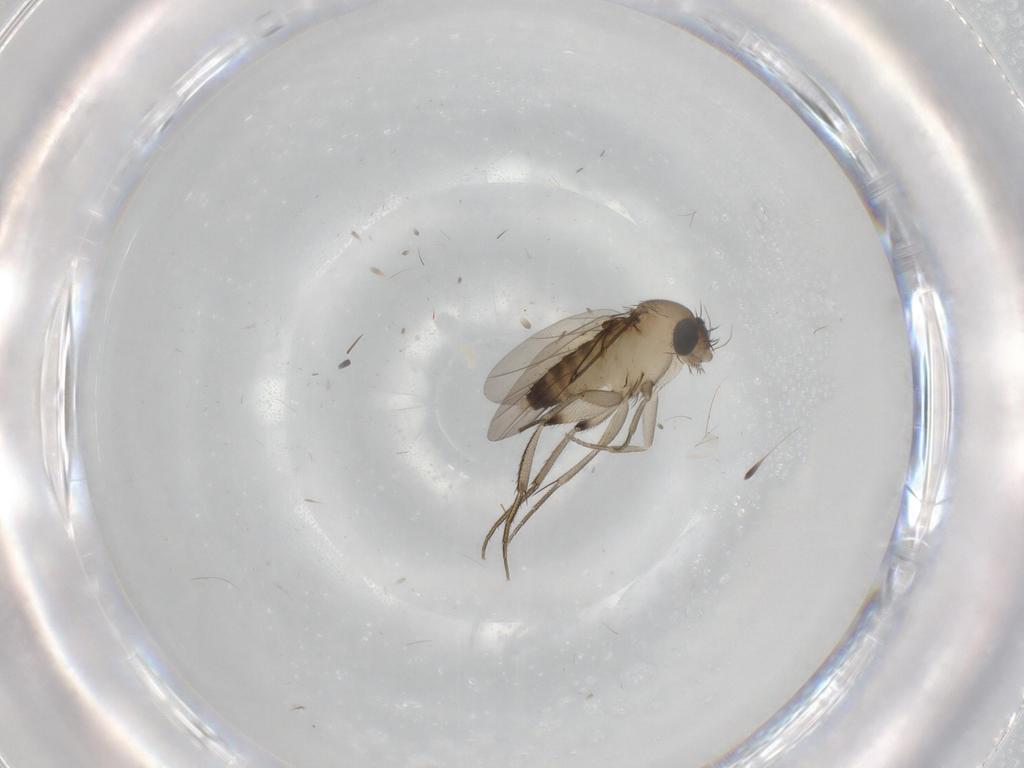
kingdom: Animalia
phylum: Arthropoda
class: Insecta
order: Diptera
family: Phoridae
